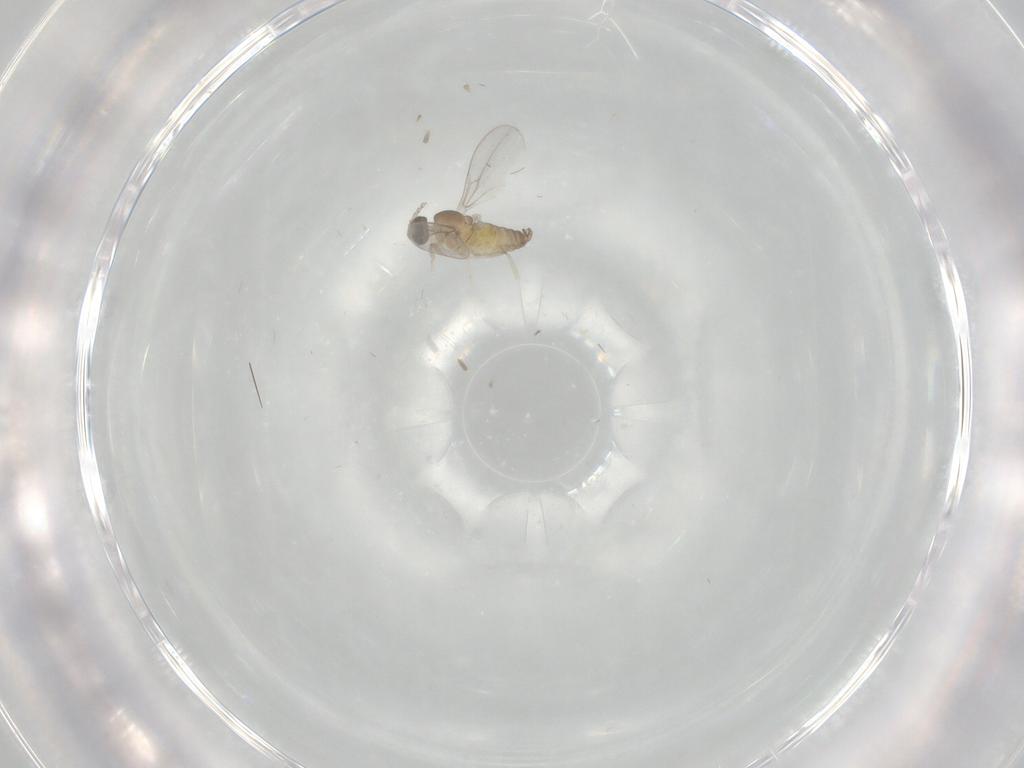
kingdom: Animalia
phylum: Arthropoda
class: Insecta
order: Diptera
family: Cecidomyiidae
